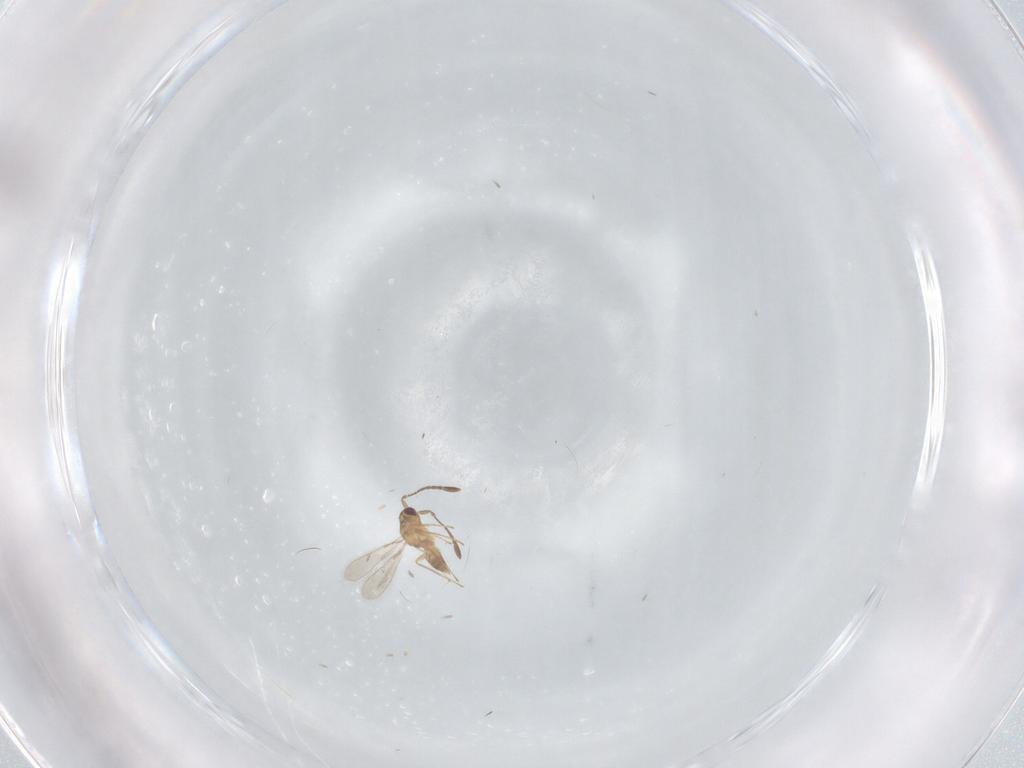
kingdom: Animalia
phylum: Arthropoda
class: Insecta
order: Hymenoptera
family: Mymaridae
